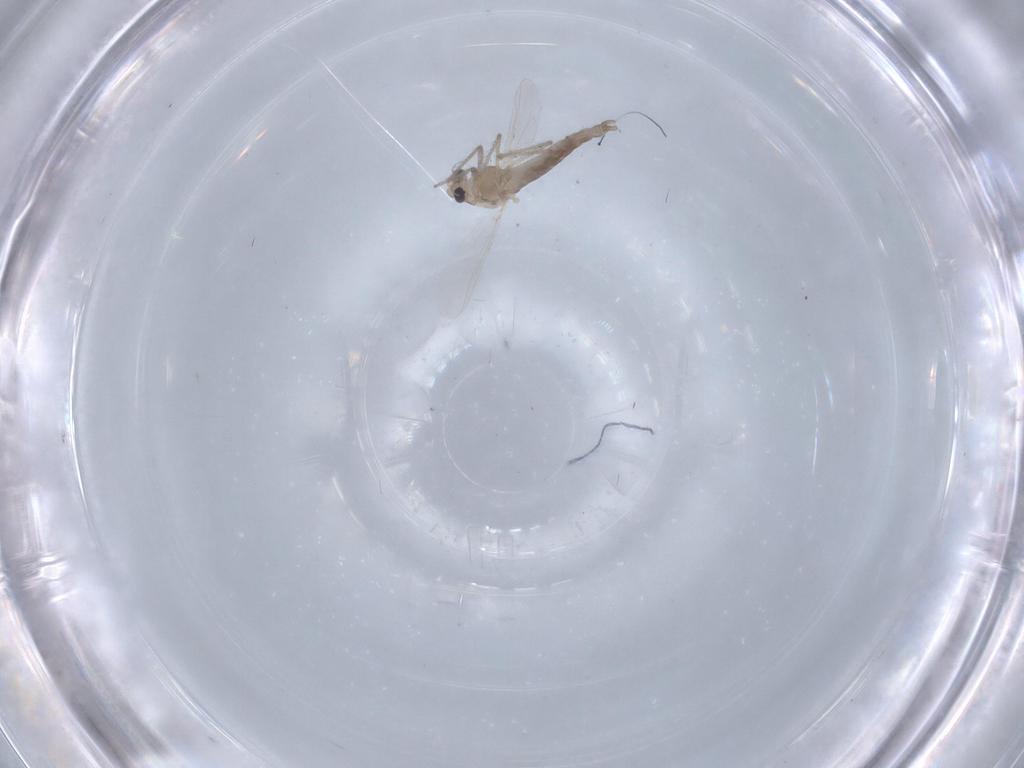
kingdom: Animalia
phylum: Arthropoda
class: Insecta
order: Diptera
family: Chironomidae
